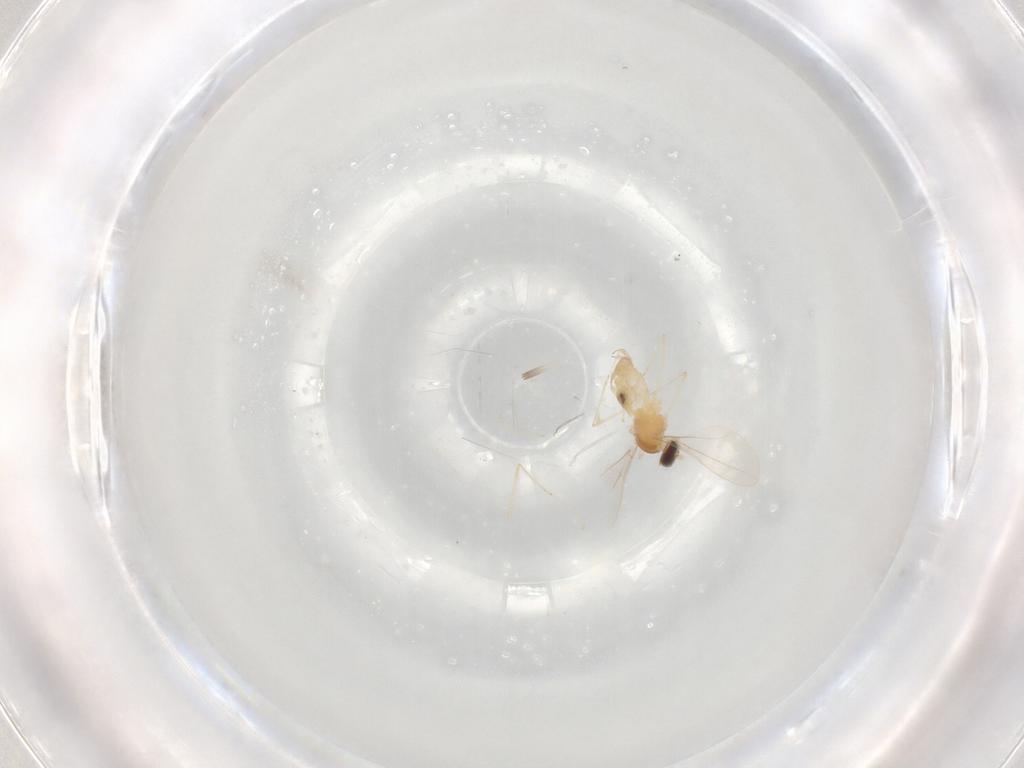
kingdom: Animalia
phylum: Arthropoda
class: Insecta
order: Diptera
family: Cecidomyiidae
